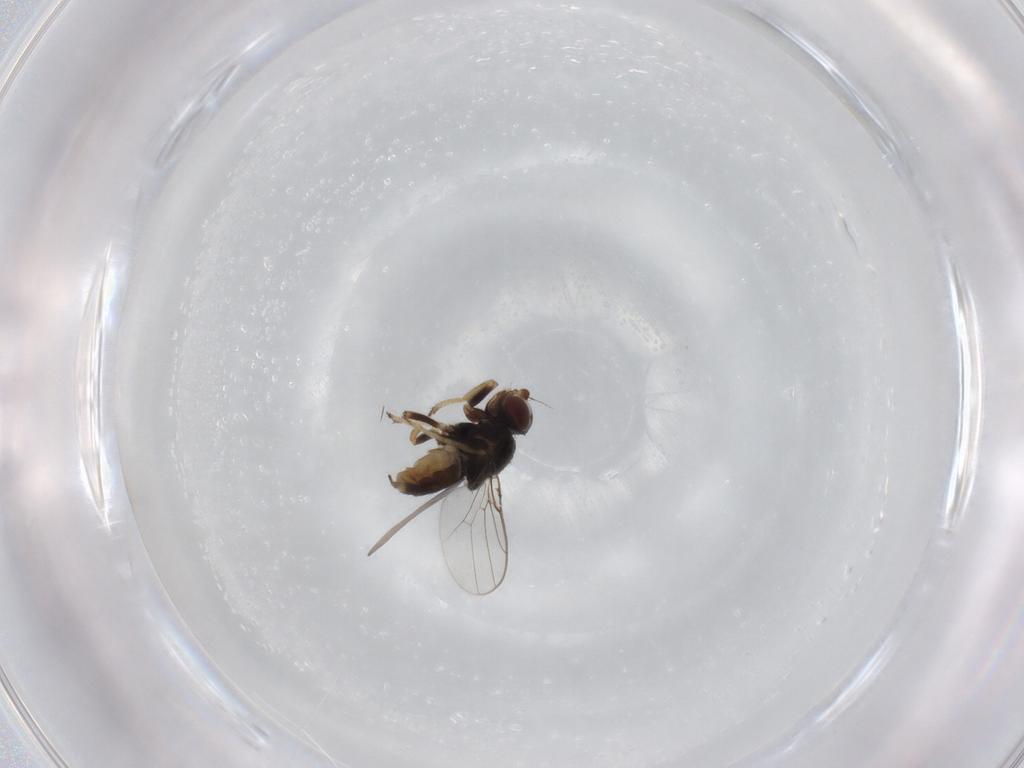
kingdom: Animalia
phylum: Arthropoda
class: Insecta
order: Diptera
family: Chloropidae
